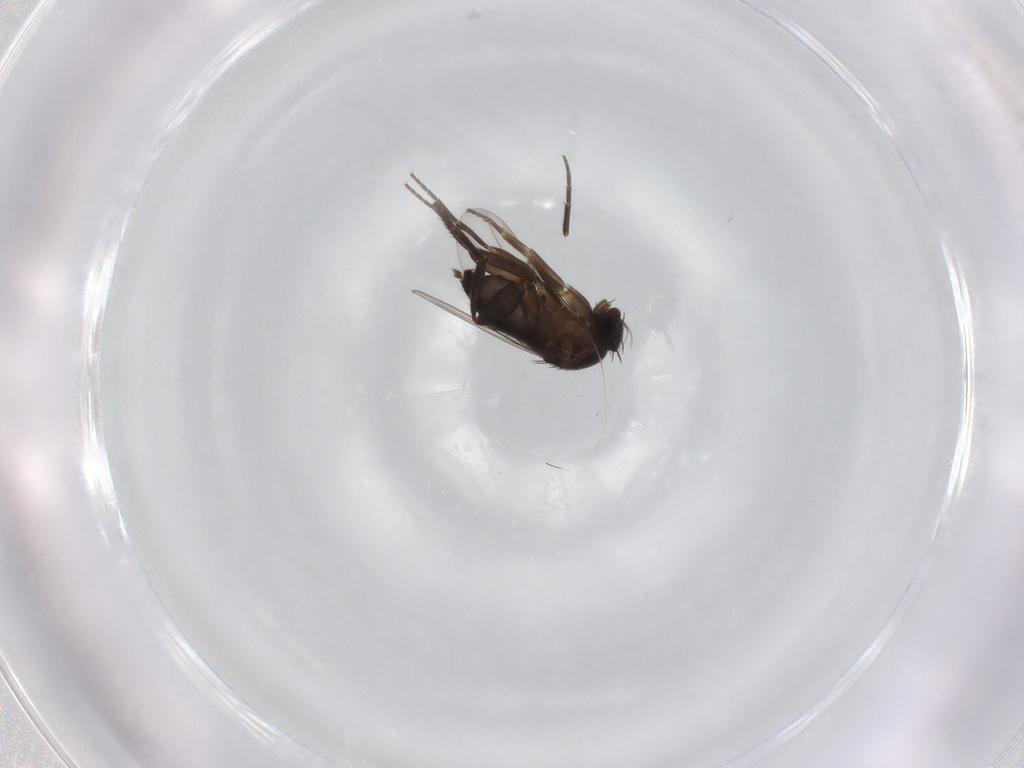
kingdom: Animalia
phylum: Arthropoda
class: Insecta
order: Diptera
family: Phoridae
